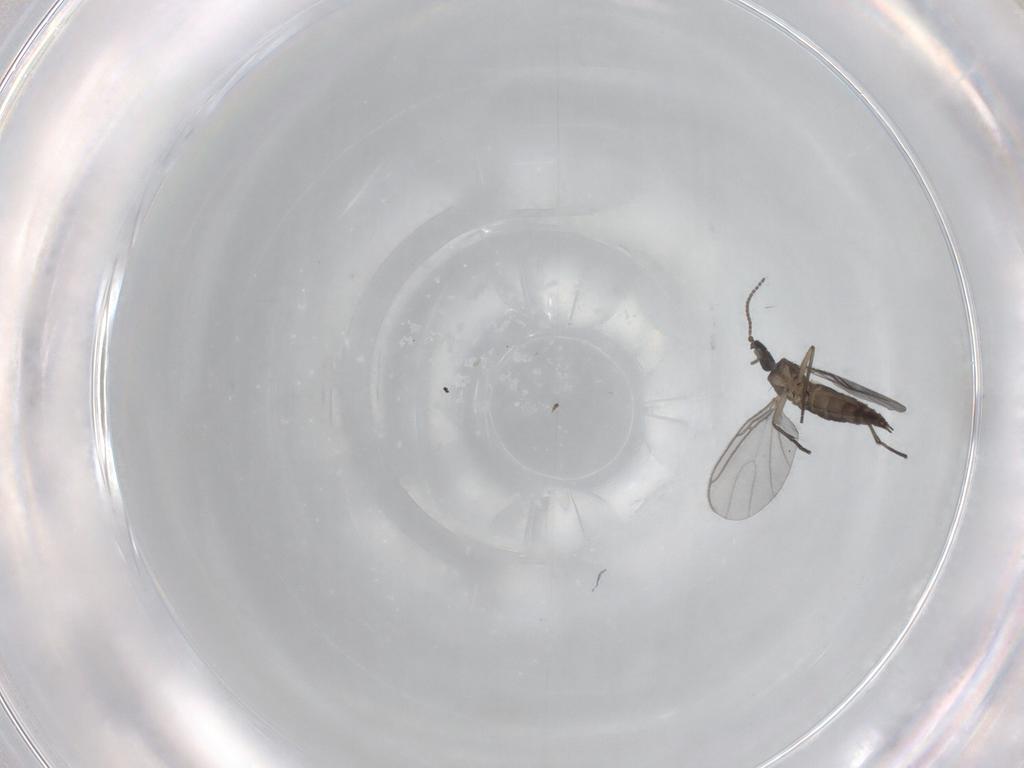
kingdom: Animalia
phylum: Arthropoda
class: Insecta
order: Diptera
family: Sciaridae
